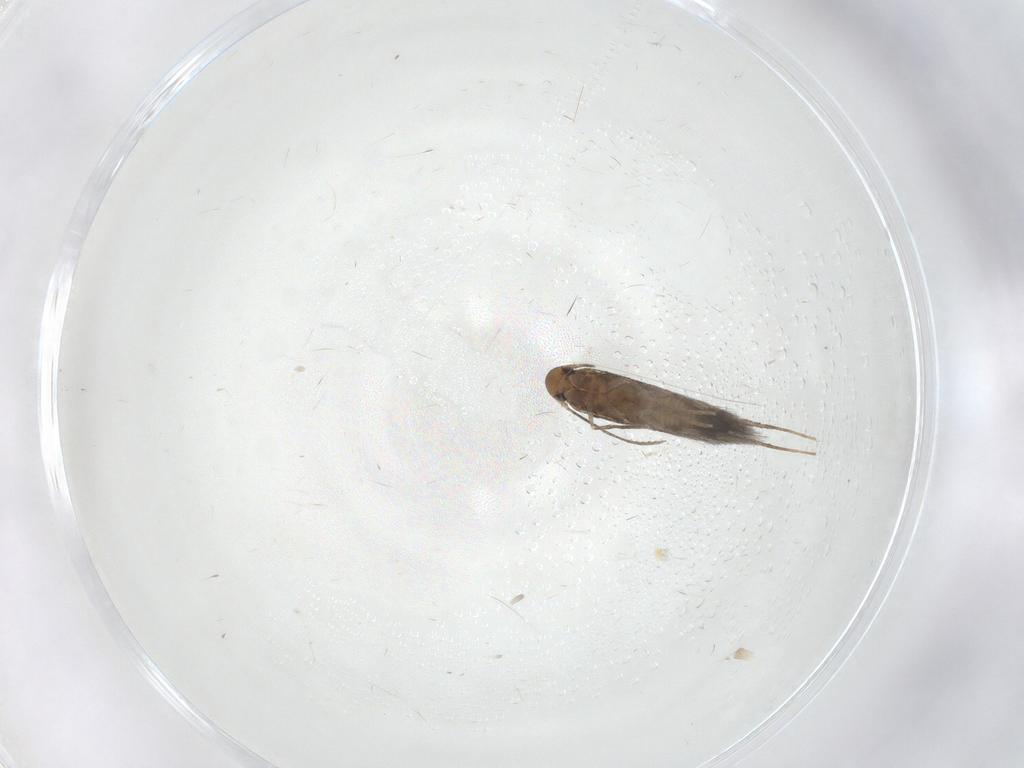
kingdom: Animalia
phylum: Arthropoda
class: Insecta
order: Lepidoptera
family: Gelechiidae
